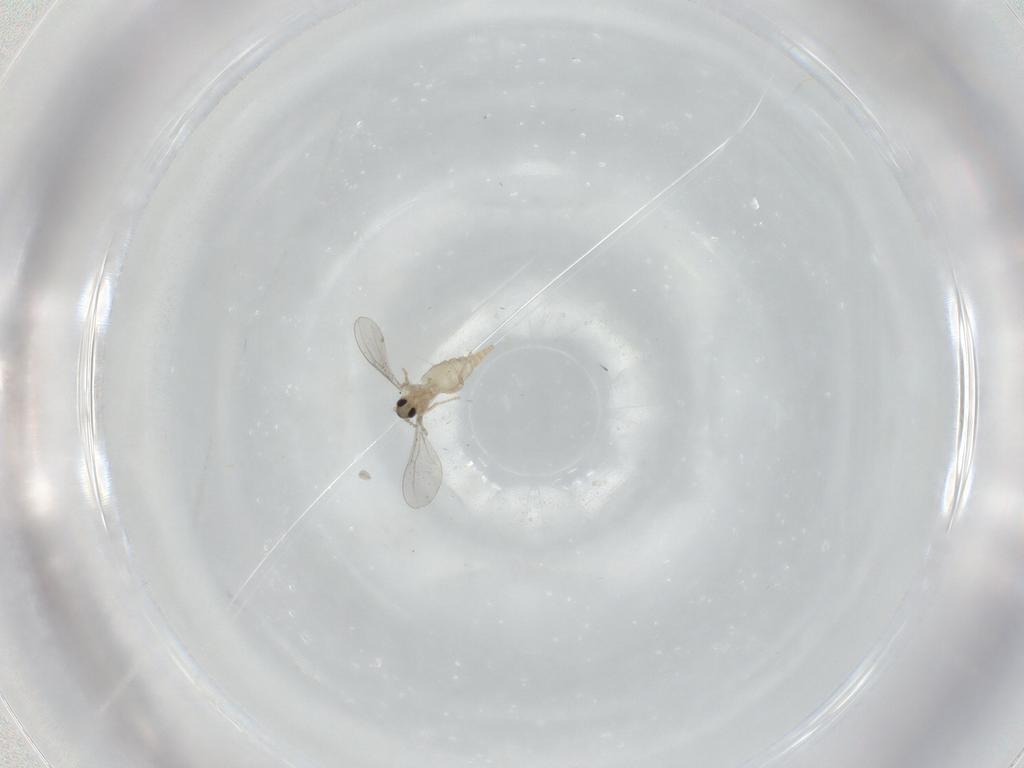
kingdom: Animalia
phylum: Arthropoda
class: Insecta
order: Diptera
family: Cecidomyiidae
